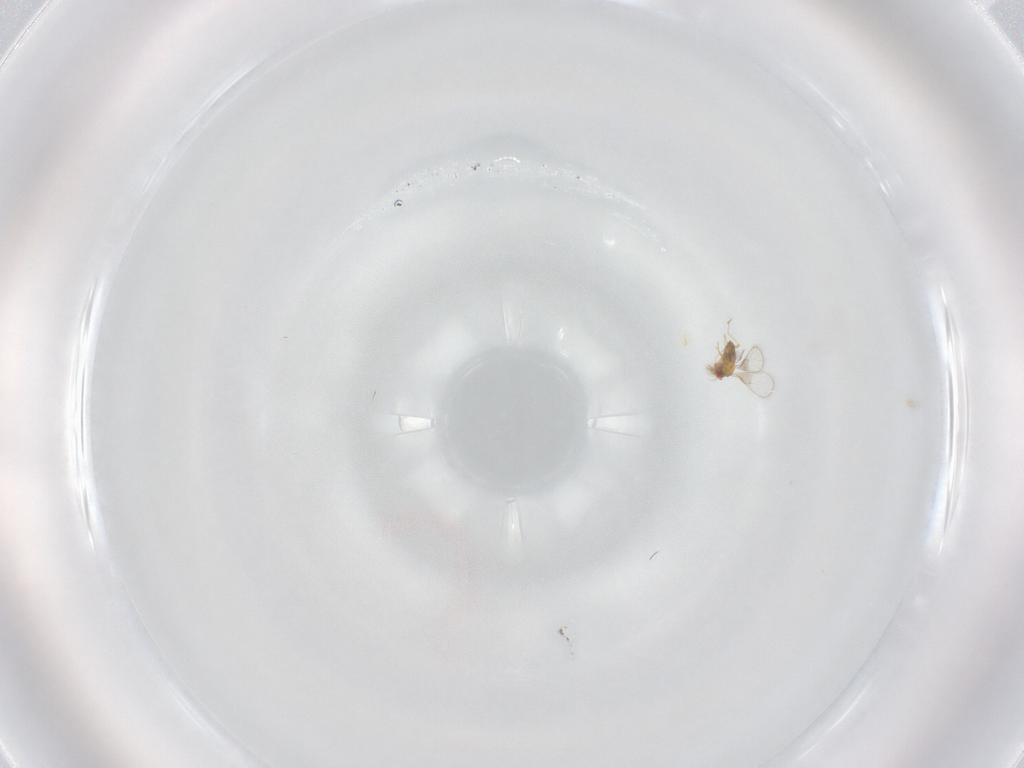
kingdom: Animalia
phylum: Arthropoda
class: Insecta
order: Hymenoptera
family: Trichogrammatidae
